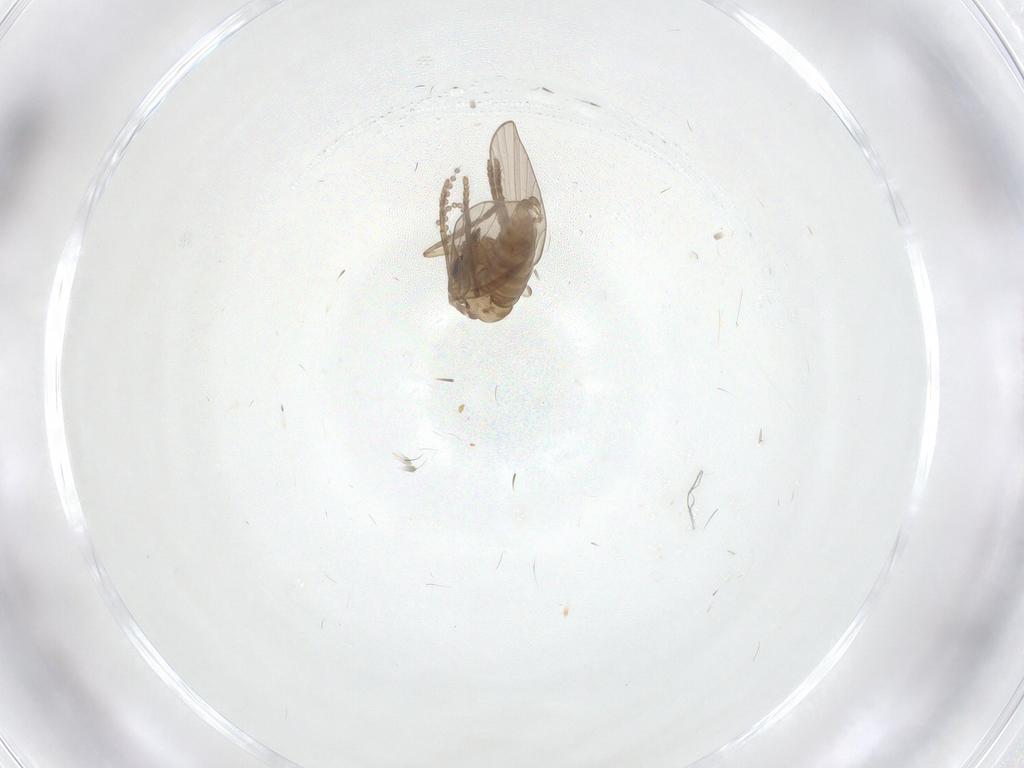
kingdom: Animalia
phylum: Arthropoda
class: Insecta
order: Diptera
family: Psychodidae
